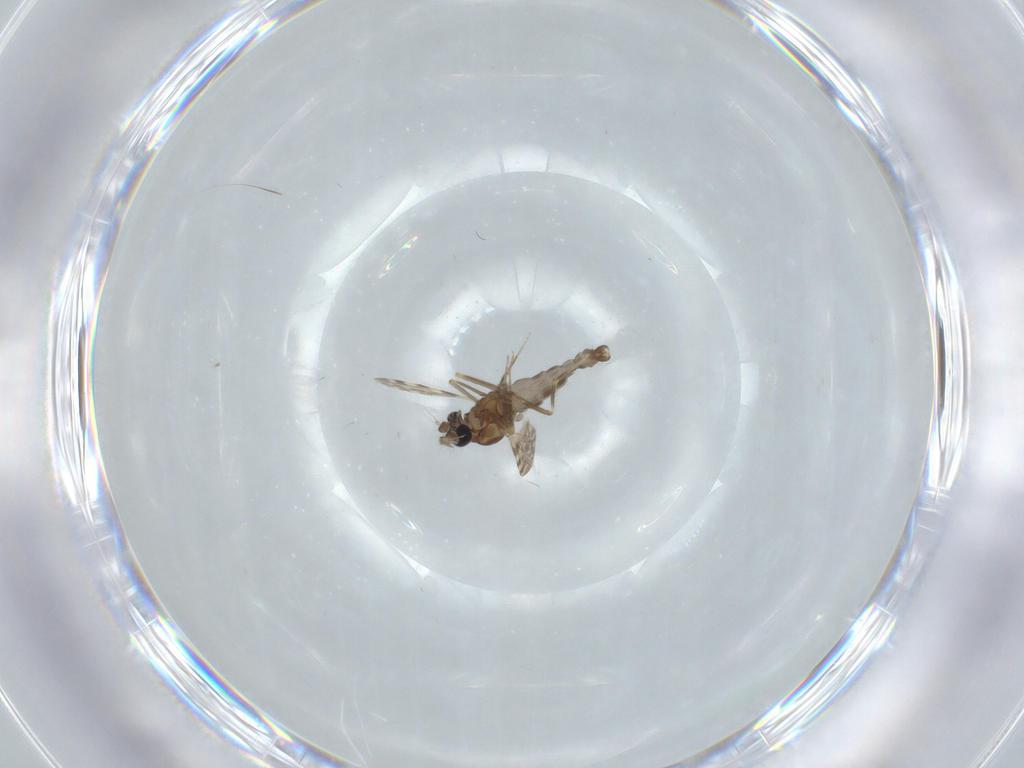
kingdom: Animalia
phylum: Arthropoda
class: Insecta
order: Diptera
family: Ceratopogonidae
